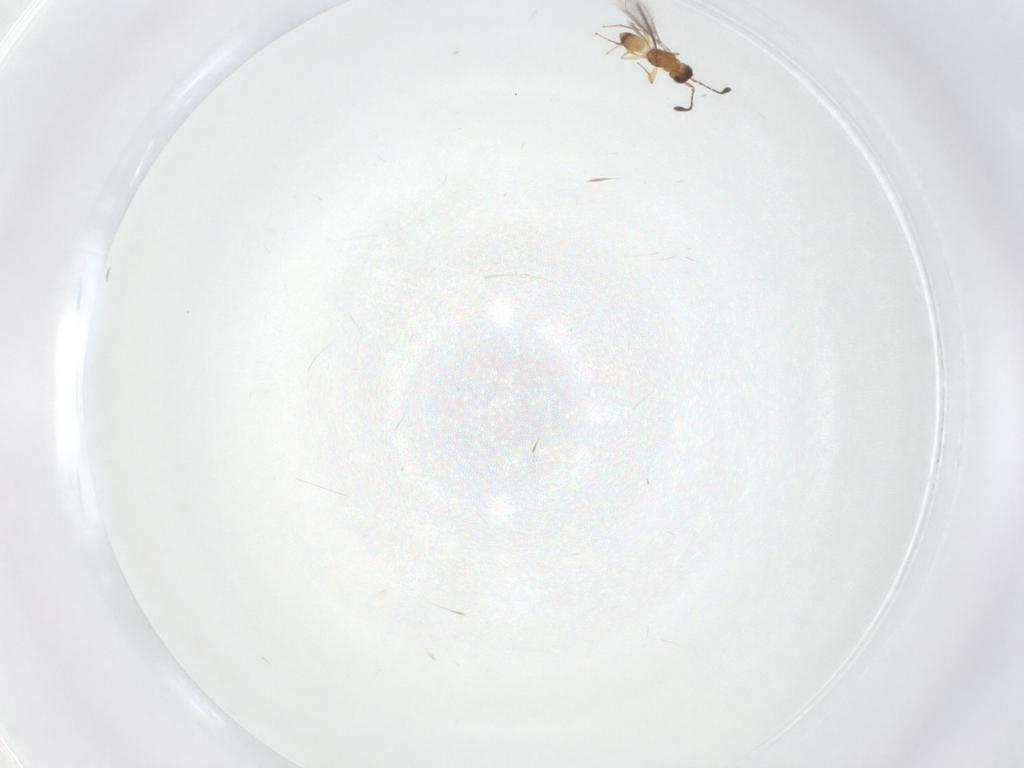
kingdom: Animalia
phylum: Arthropoda
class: Insecta
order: Hymenoptera
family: Mymaridae
